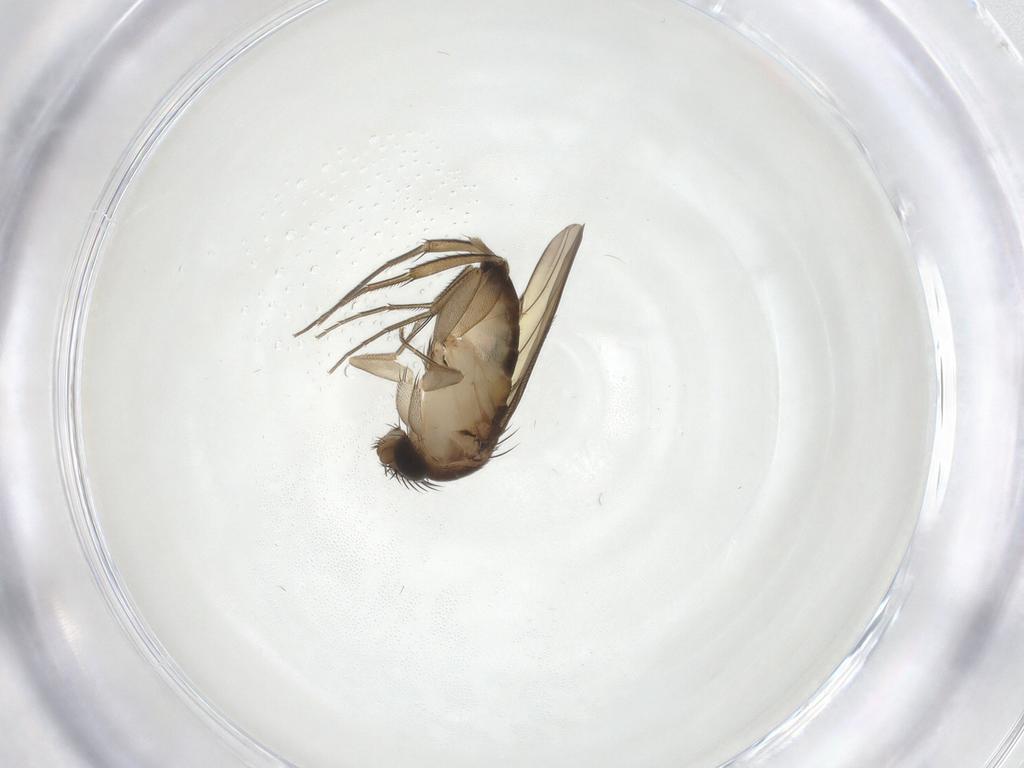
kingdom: Animalia
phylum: Arthropoda
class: Insecta
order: Diptera
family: Phoridae
